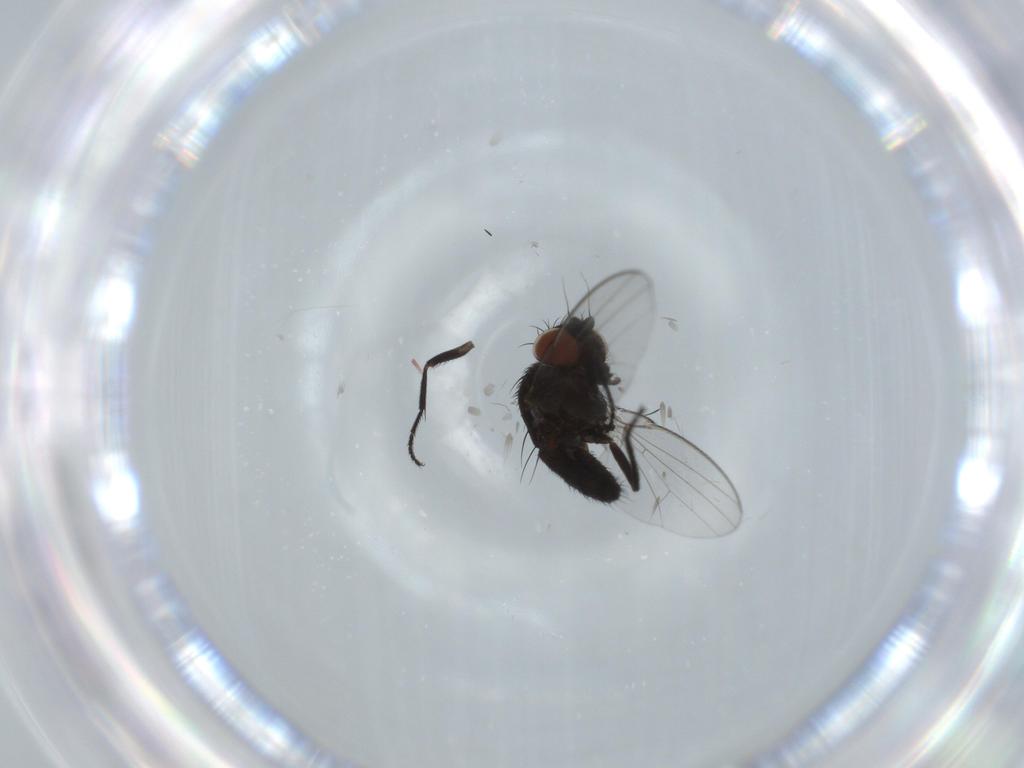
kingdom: Animalia
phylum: Arthropoda
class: Insecta
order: Diptera
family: Milichiidae
